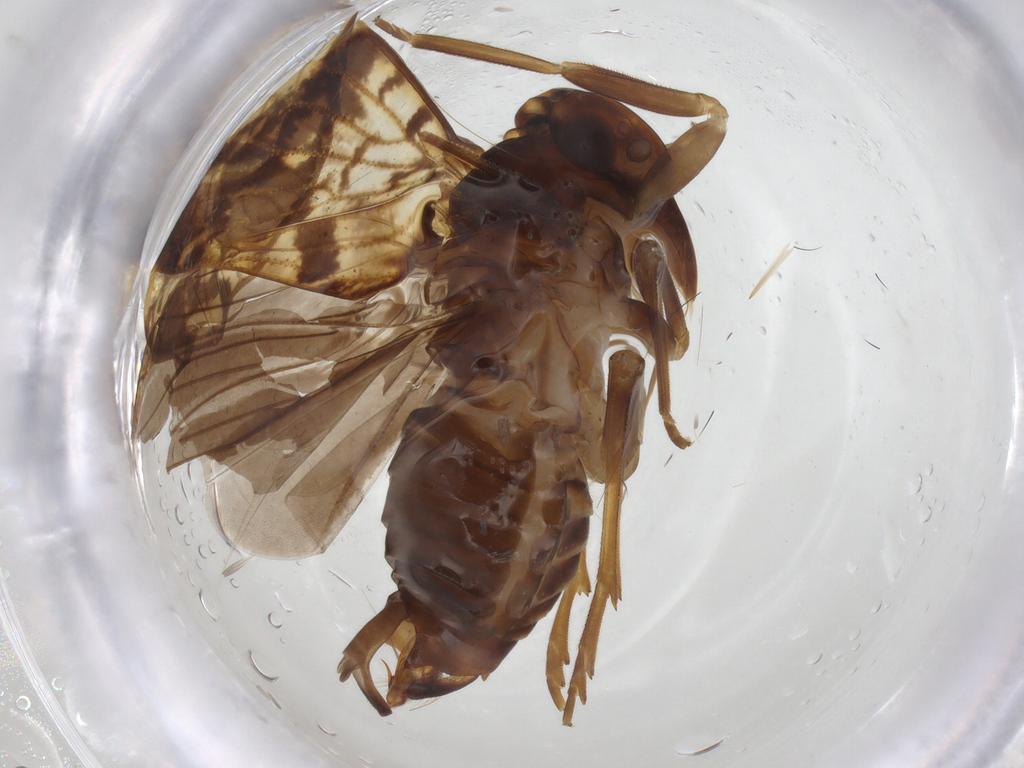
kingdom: Animalia
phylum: Arthropoda
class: Insecta
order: Hemiptera
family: Cixiidae
